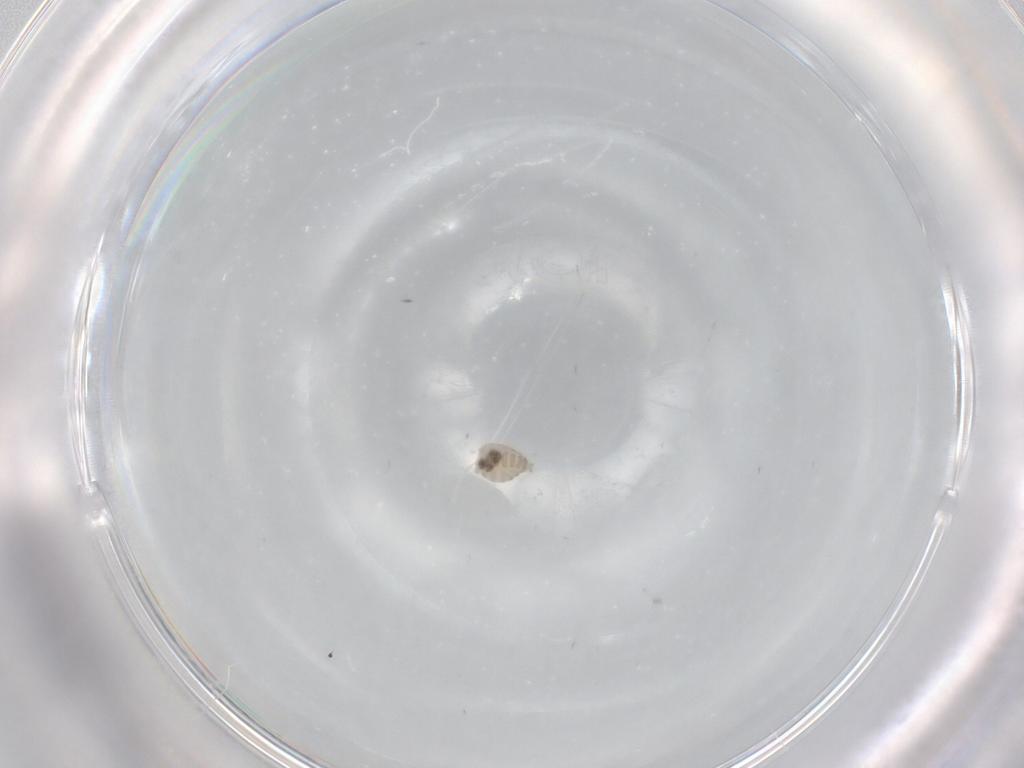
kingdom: Animalia
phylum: Arthropoda
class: Insecta
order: Diptera
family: Cecidomyiidae
